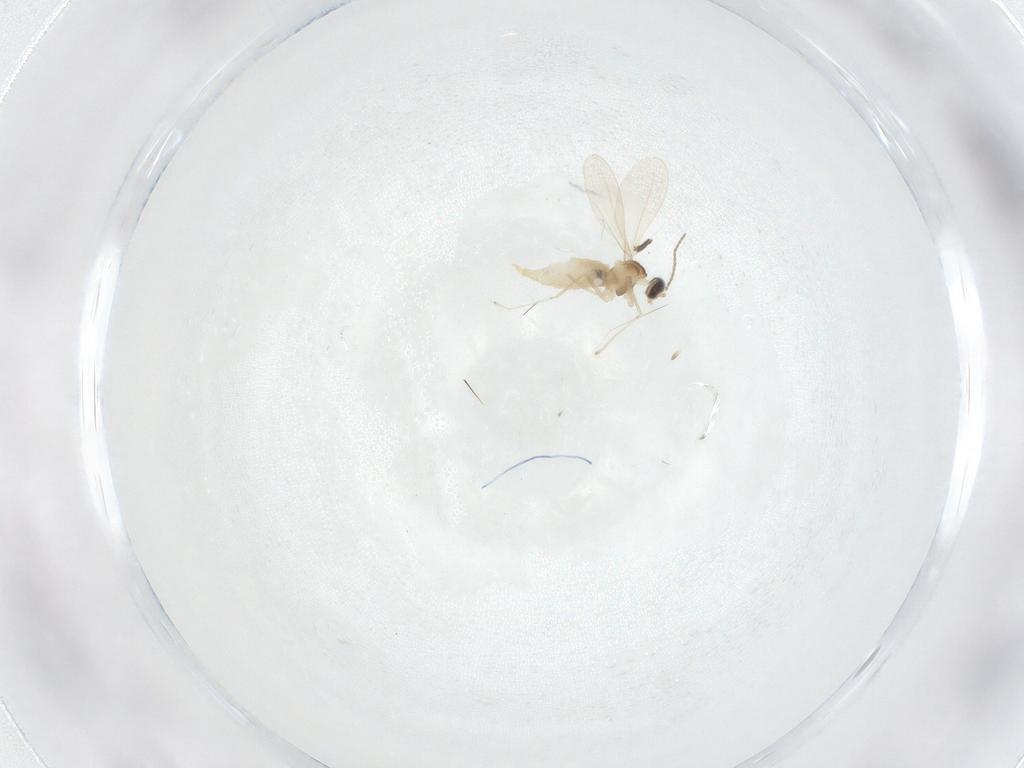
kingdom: Animalia
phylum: Arthropoda
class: Insecta
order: Diptera
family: Cecidomyiidae
